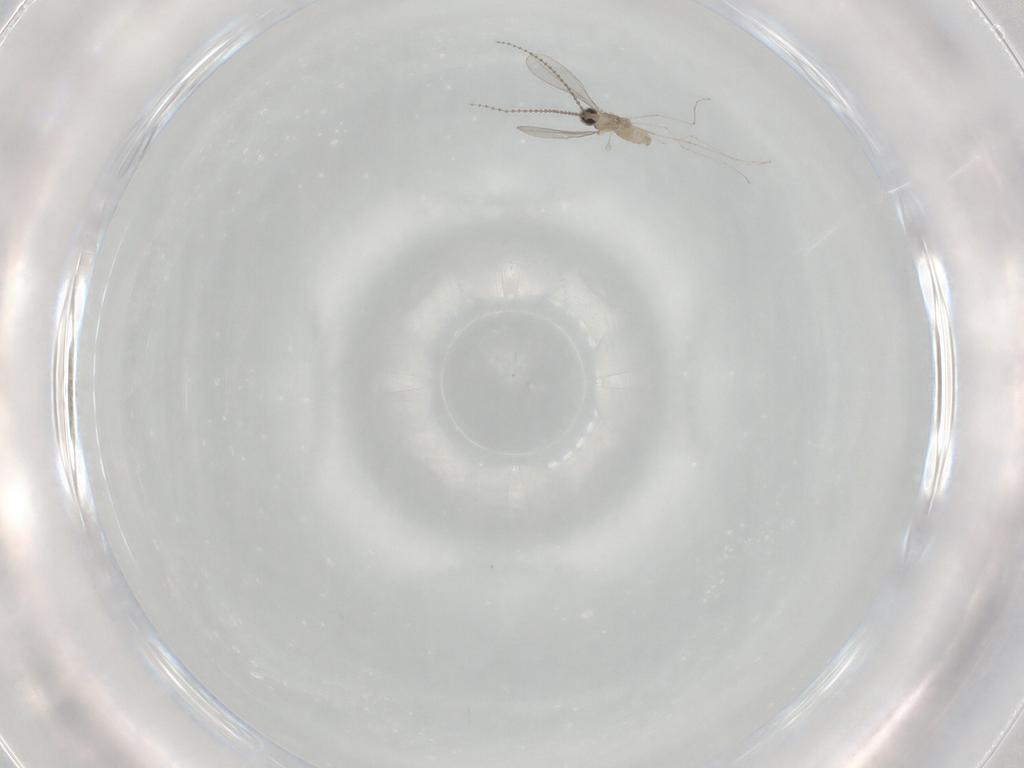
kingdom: Animalia
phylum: Arthropoda
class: Insecta
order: Diptera
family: Cecidomyiidae
